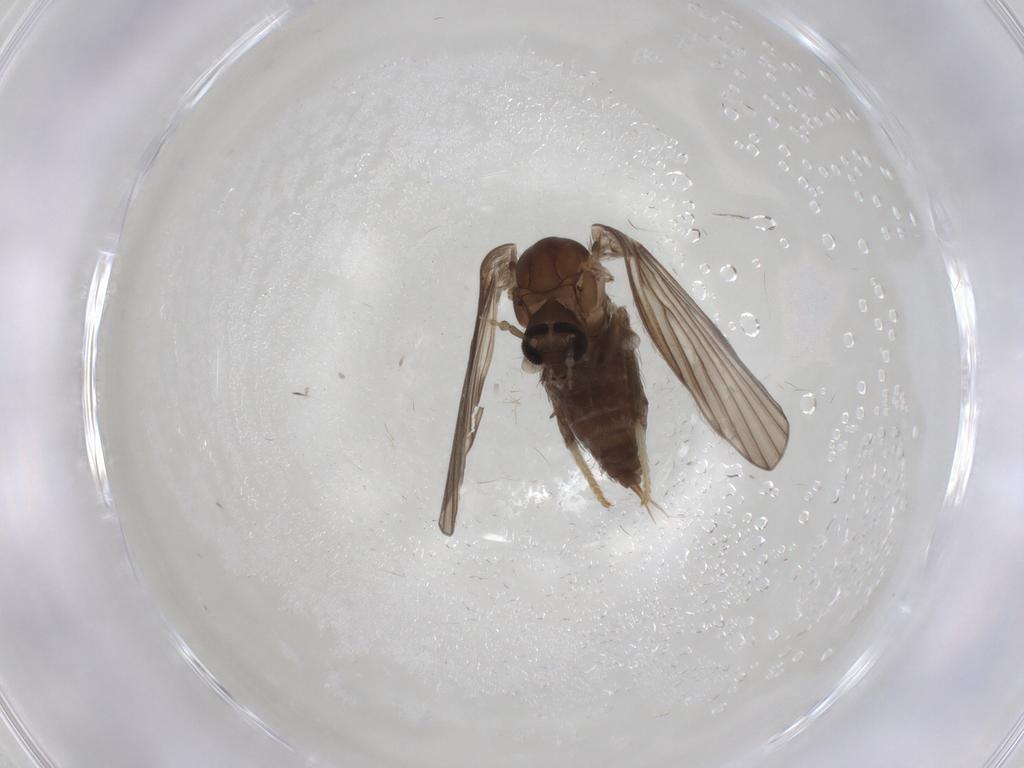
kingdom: Animalia
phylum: Arthropoda
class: Insecta
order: Diptera
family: Psychodidae
